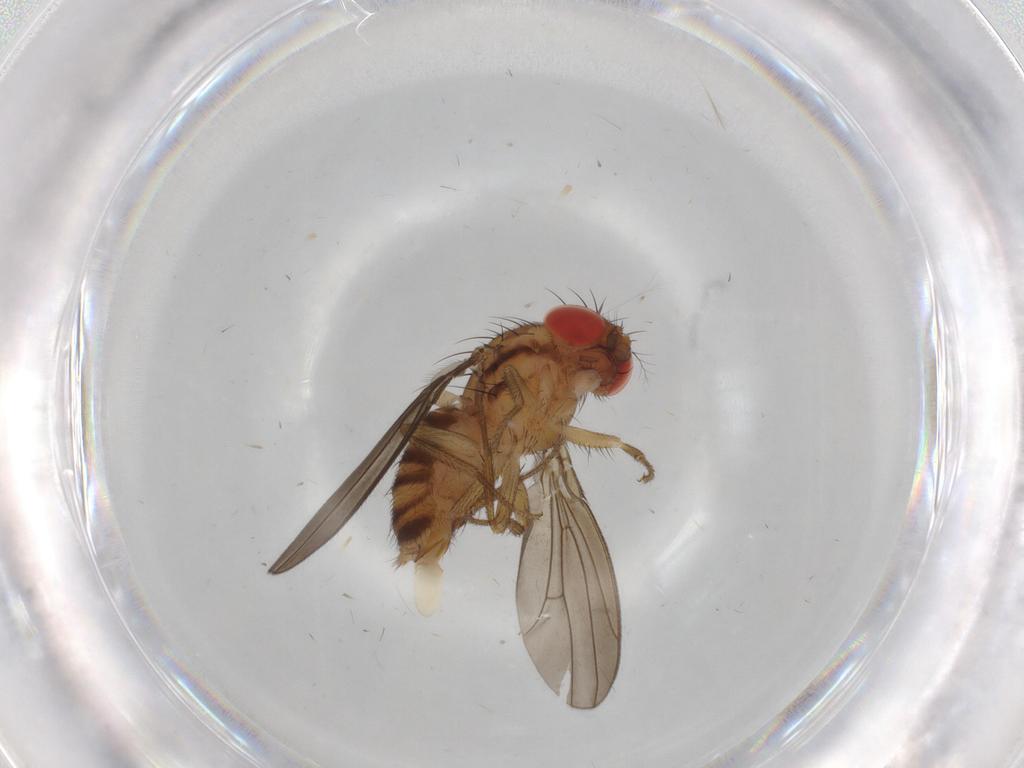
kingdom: Animalia
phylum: Arthropoda
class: Insecta
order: Diptera
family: Drosophilidae
